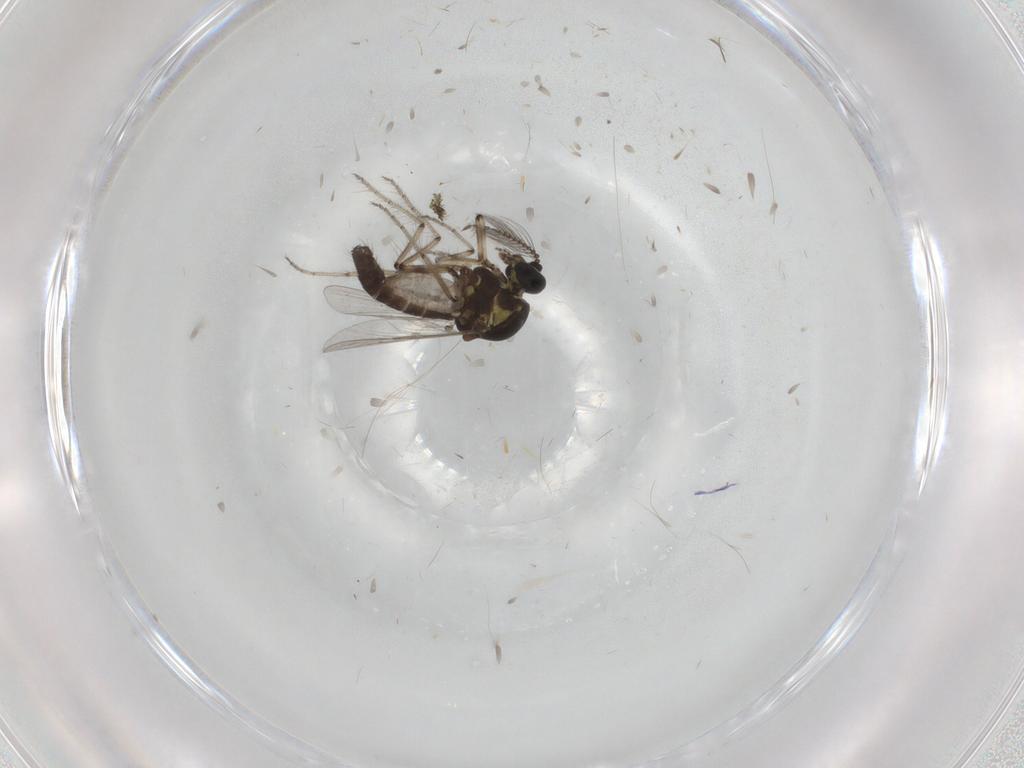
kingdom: Animalia
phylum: Arthropoda
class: Insecta
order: Diptera
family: Ceratopogonidae
